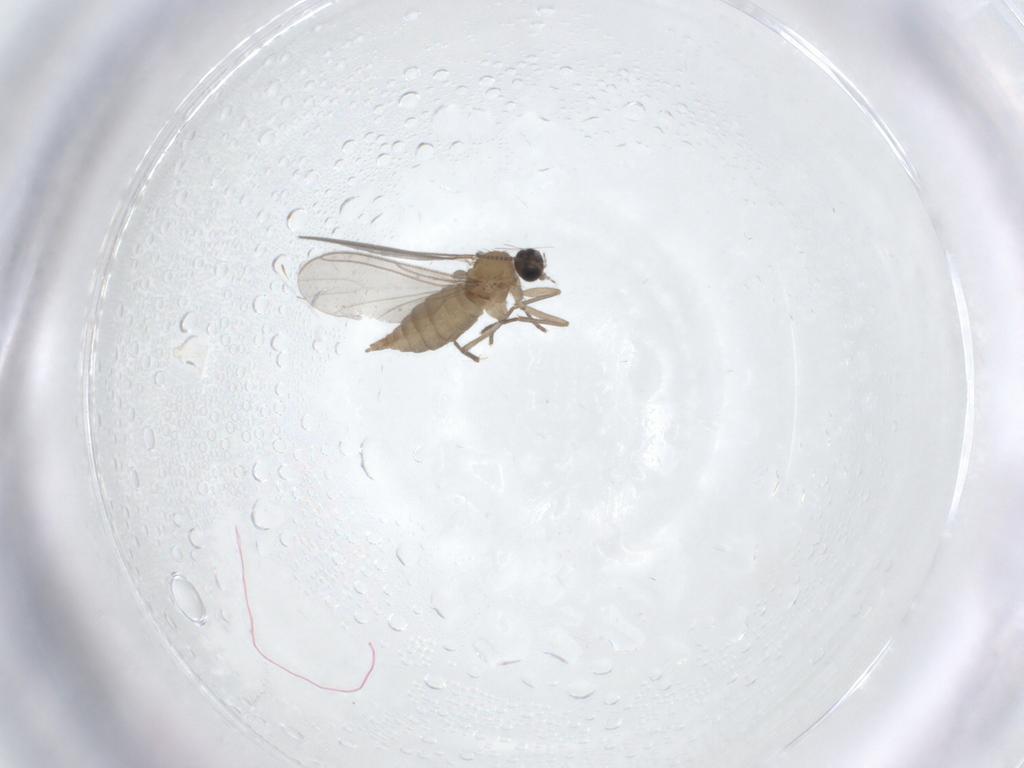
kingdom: Animalia
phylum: Arthropoda
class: Insecta
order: Diptera
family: Sciaridae
